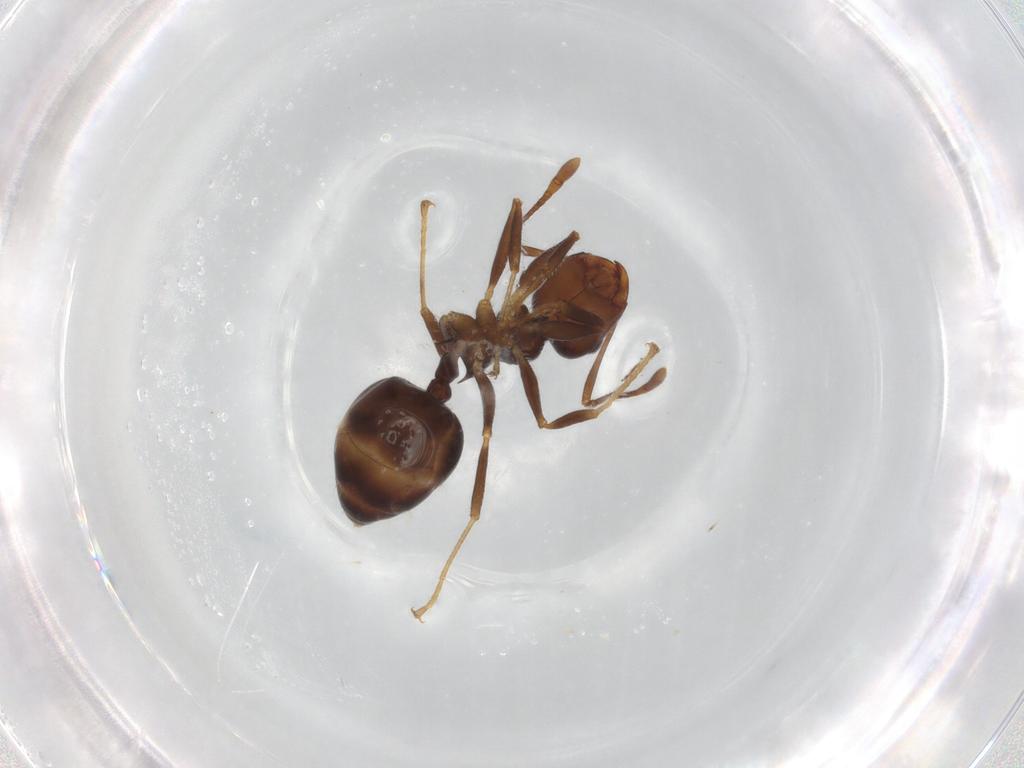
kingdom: Animalia
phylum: Arthropoda
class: Insecta
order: Hymenoptera
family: Formicidae
